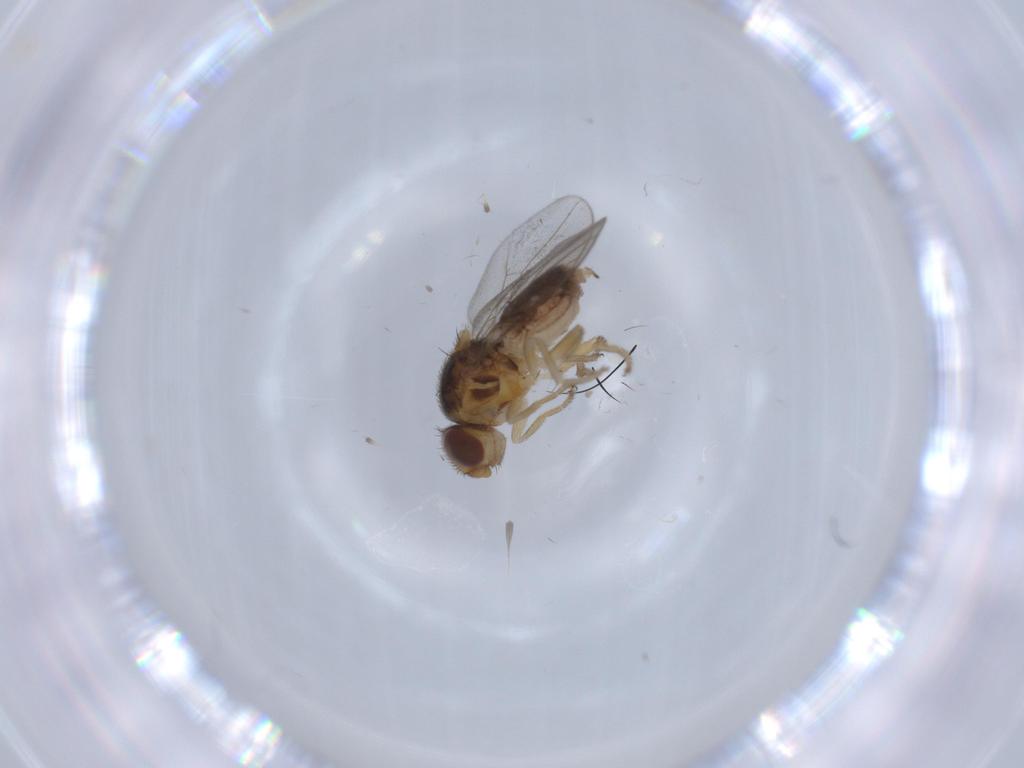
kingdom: Animalia
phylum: Arthropoda
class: Insecta
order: Diptera
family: Chloropidae
